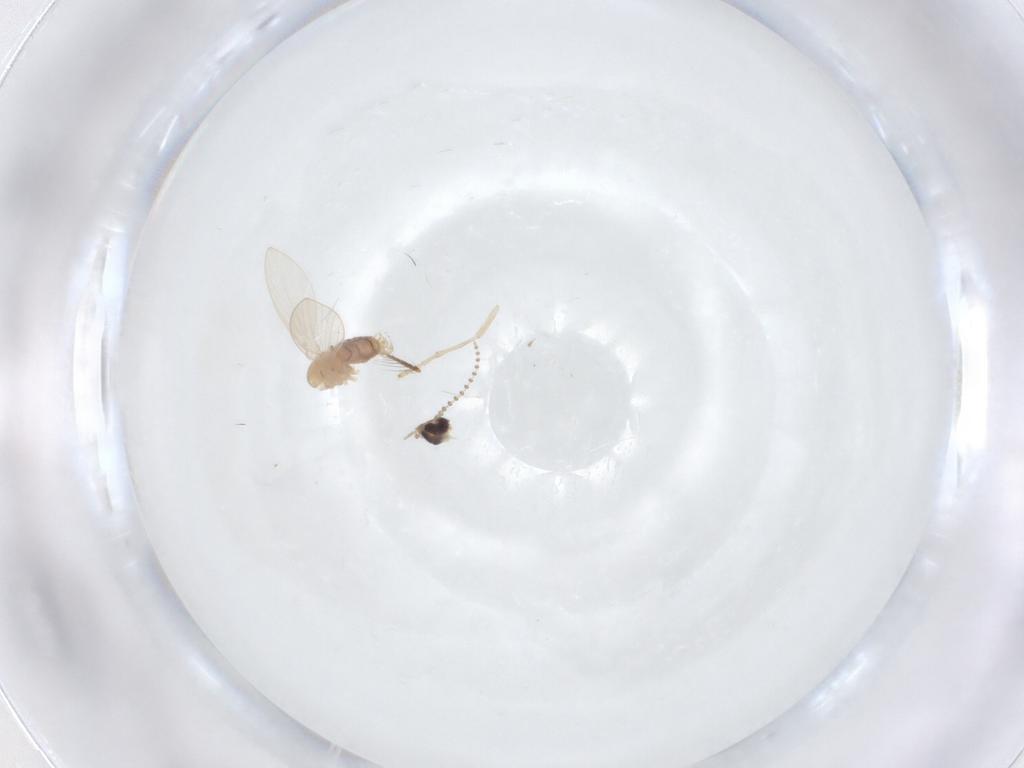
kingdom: Animalia
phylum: Arthropoda
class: Insecta
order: Diptera
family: Psychodidae
